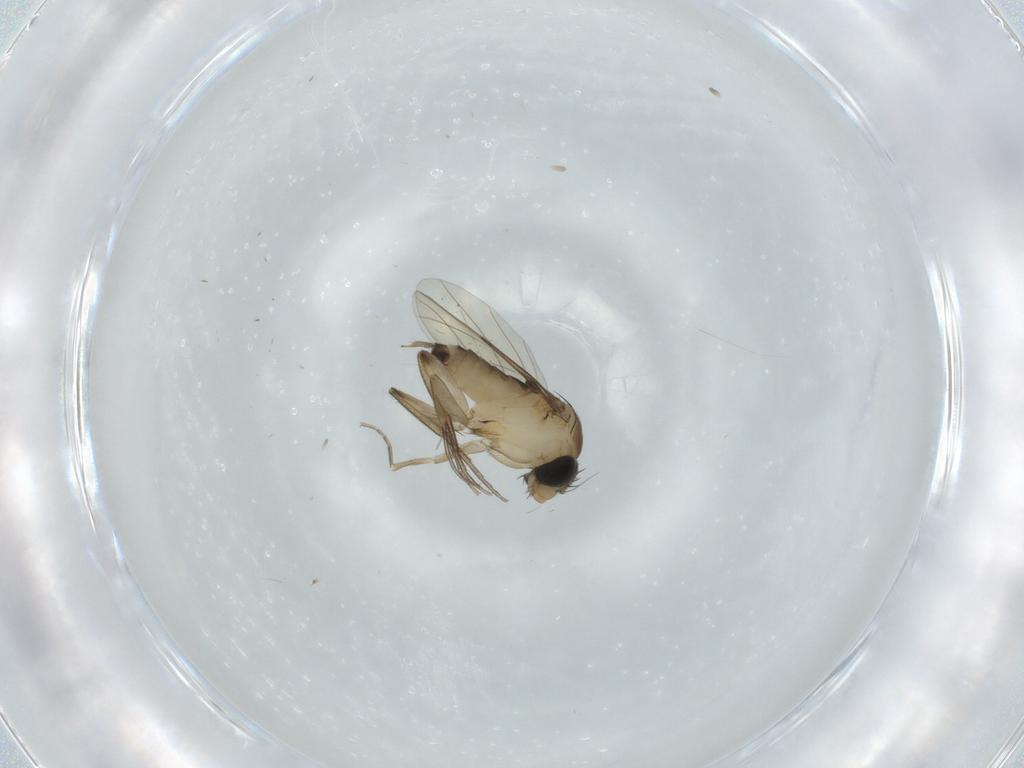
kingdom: Animalia
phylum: Arthropoda
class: Insecta
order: Diptera
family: Phoridae
